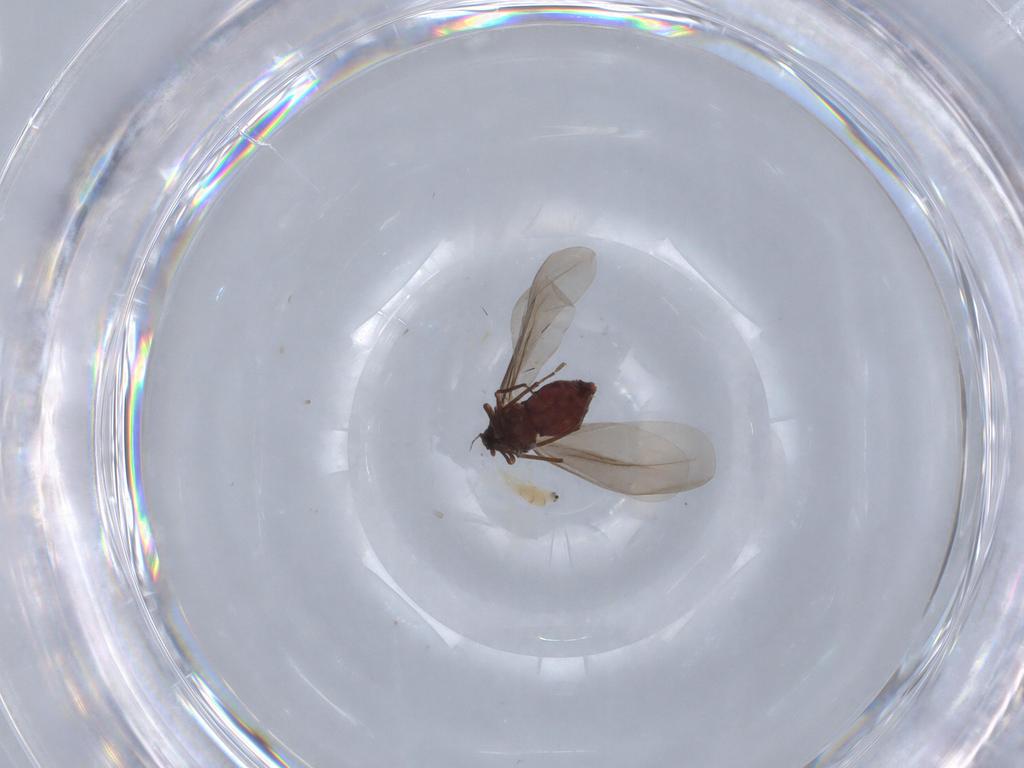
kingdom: Animalia
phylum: Arthropoda
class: Insecta
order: Hemiptera
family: Aleyrodidae
